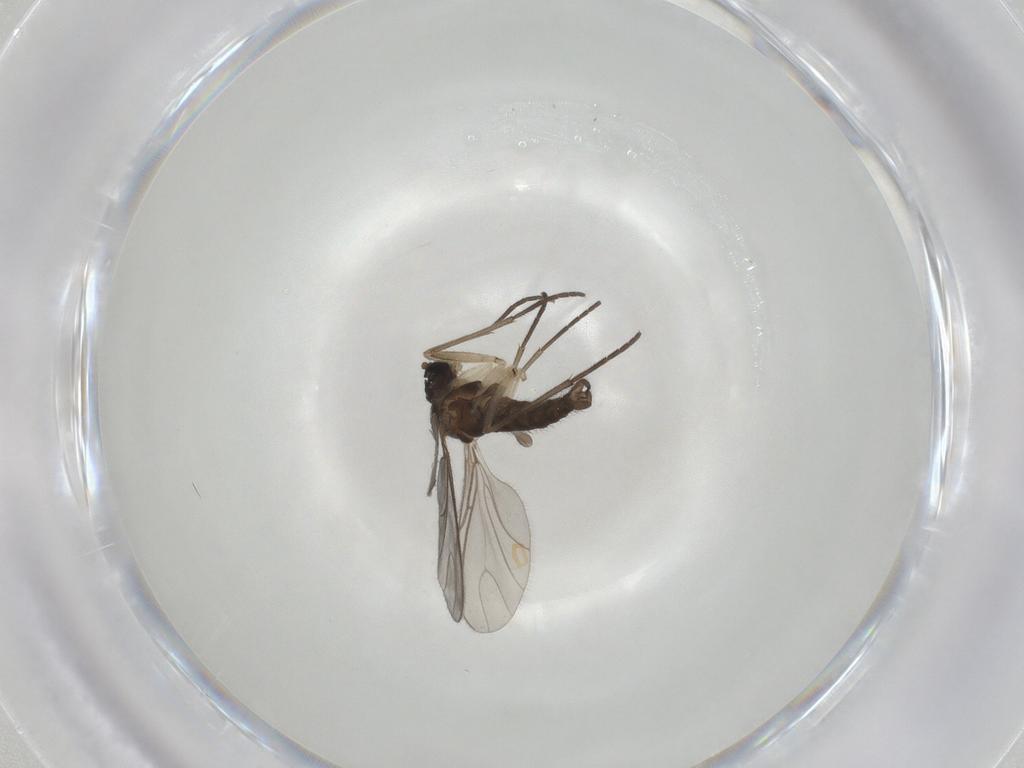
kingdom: Animalia
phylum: Arthropoda
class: Insecta
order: Diptera
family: Sciaridae
